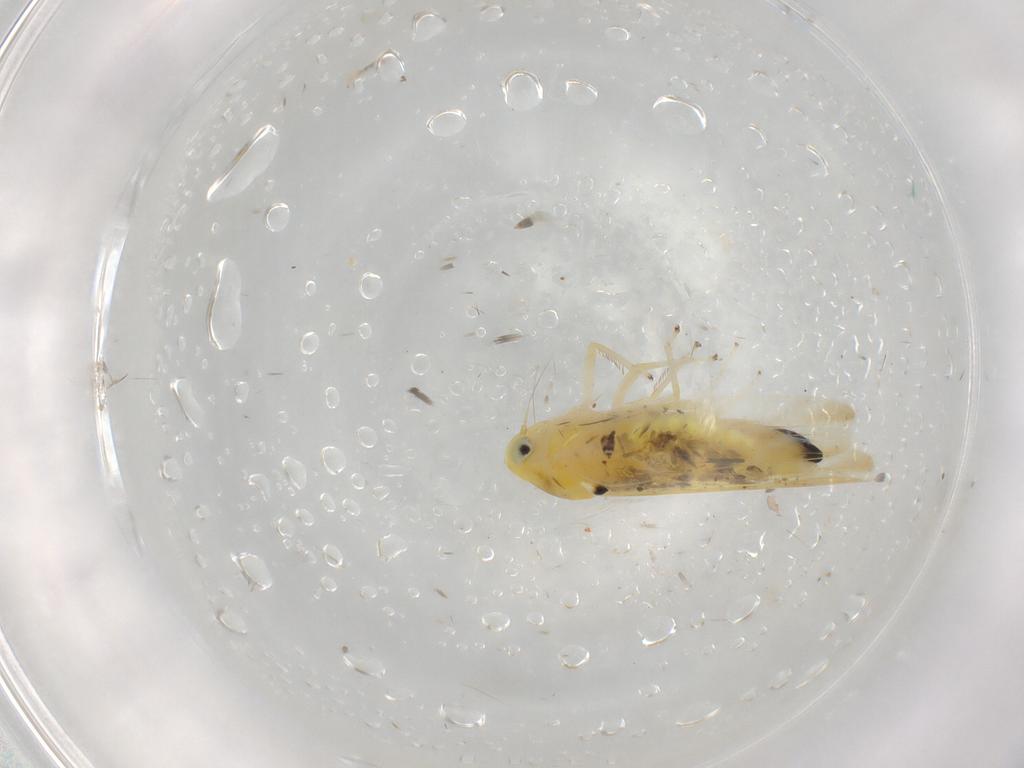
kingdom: Animalia
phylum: Arthropoda
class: Insecta
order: Hemiptera
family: Cicadellidae
